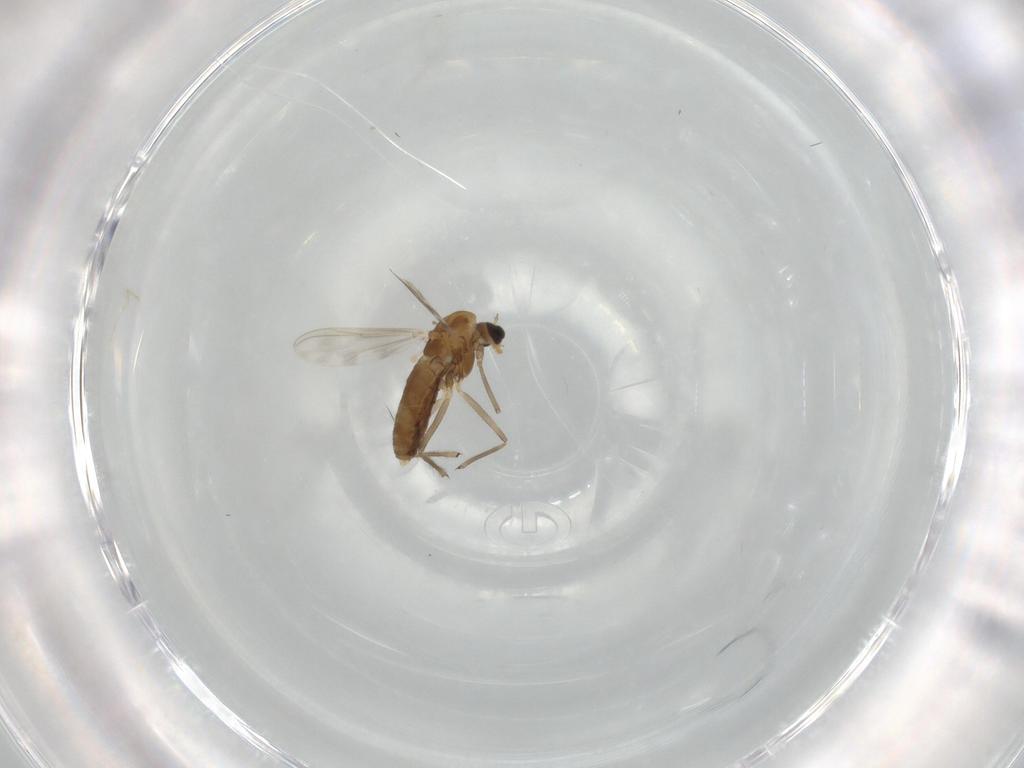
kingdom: Animalia
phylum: Arthropoda
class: Insecta
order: Diptera
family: Chironomidae
